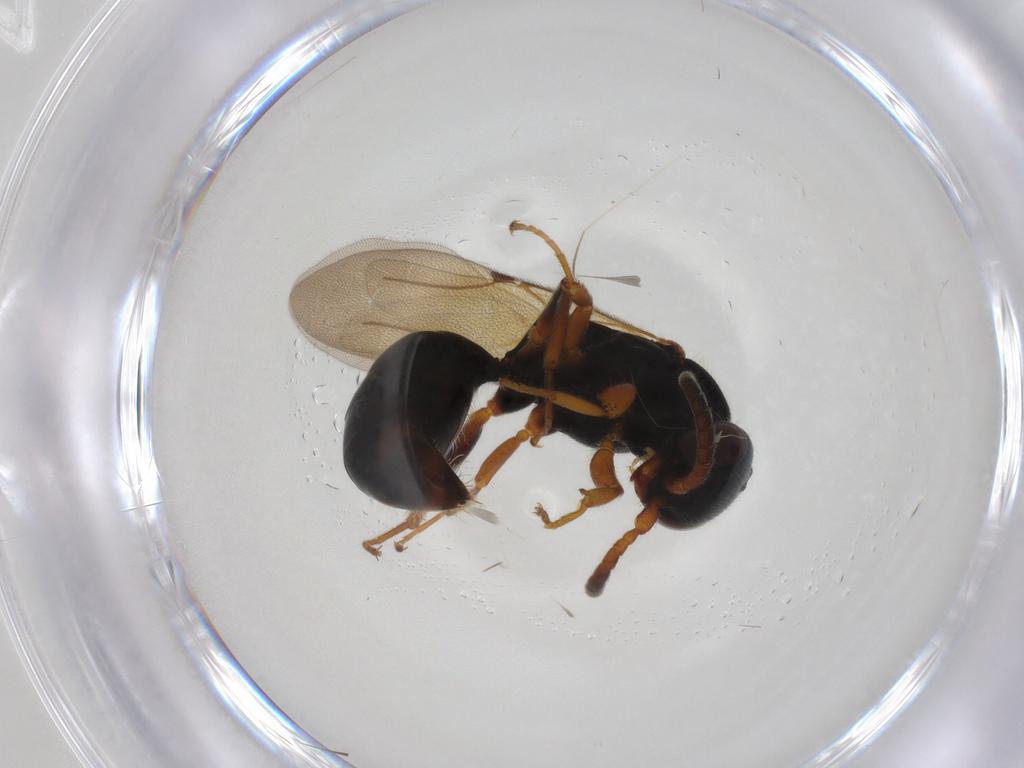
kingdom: Animalia
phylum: Arthropoda
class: Insecta
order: Hymenoptera
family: Bethylidae
